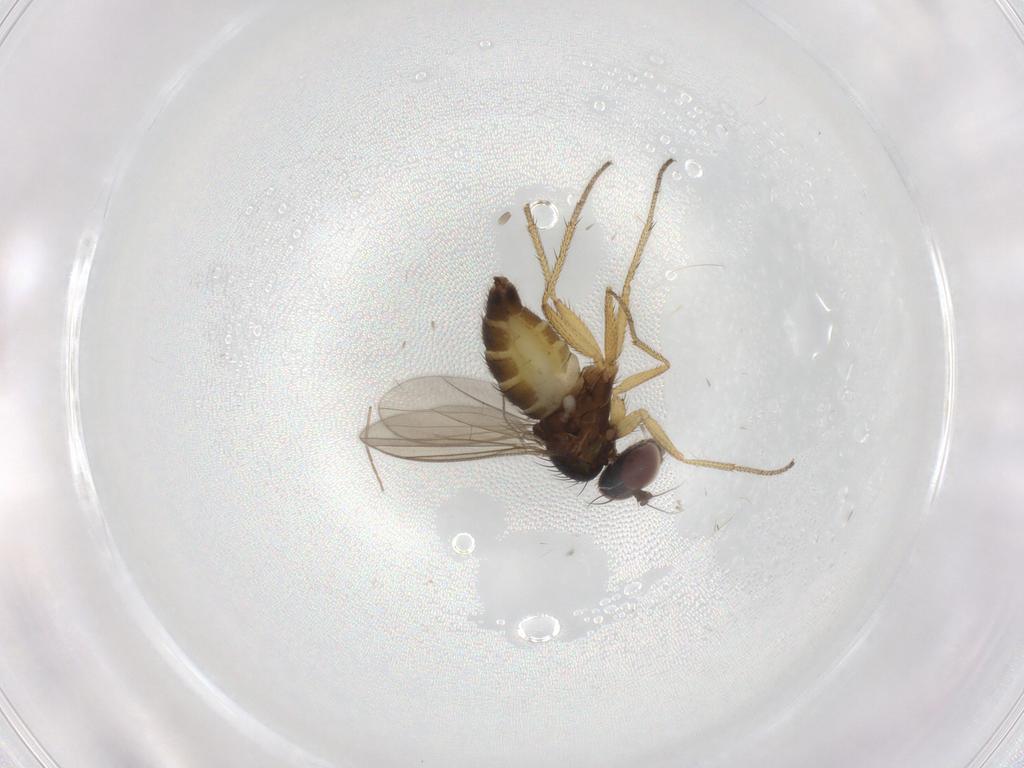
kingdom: Animalia
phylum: Arthropoda
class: Insecta
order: Diptera
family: Dolichopodidae
